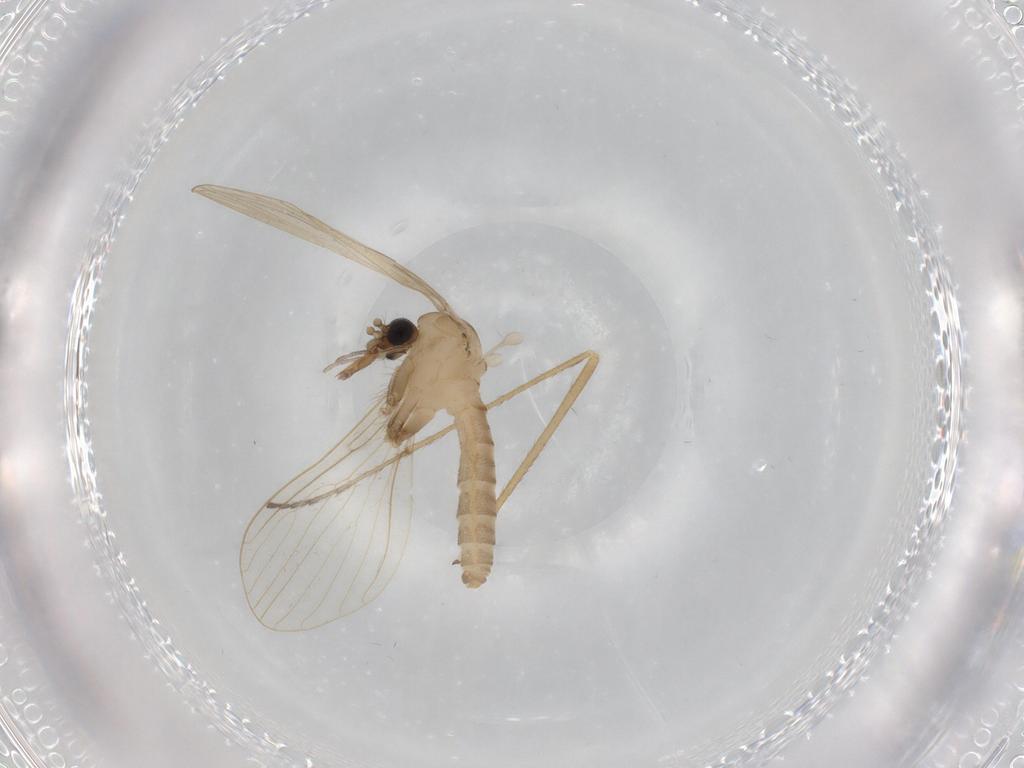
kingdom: Animalia
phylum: Arthropoda
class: Insecta
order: Diptera
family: Psychodidae
